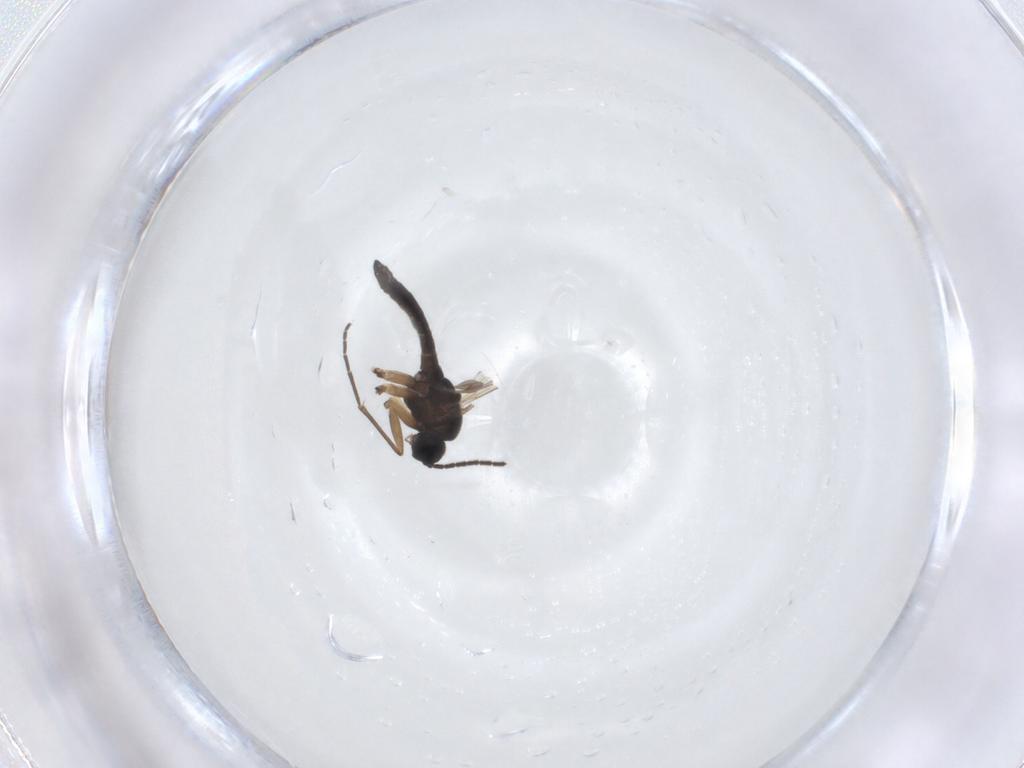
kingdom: Animalia
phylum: Arthropoda
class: Insecta
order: Diptera
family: Sciaridae
